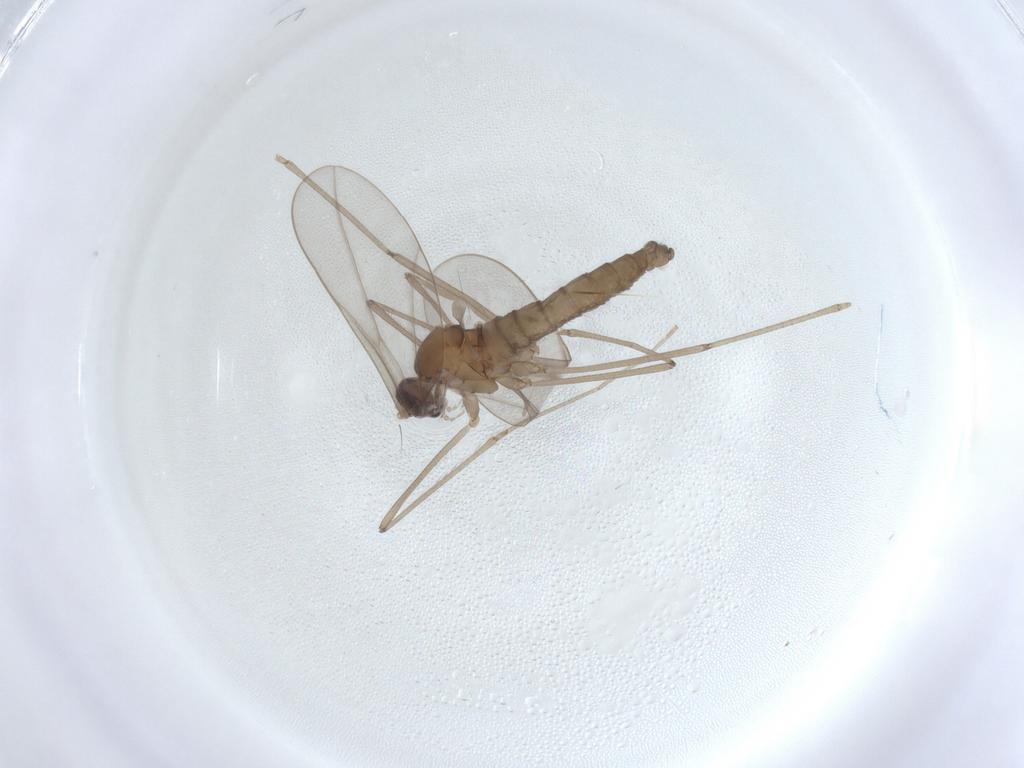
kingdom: Animalia
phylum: Arthropoda
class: Insecta
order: Diptera
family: Cecidomyiidae
